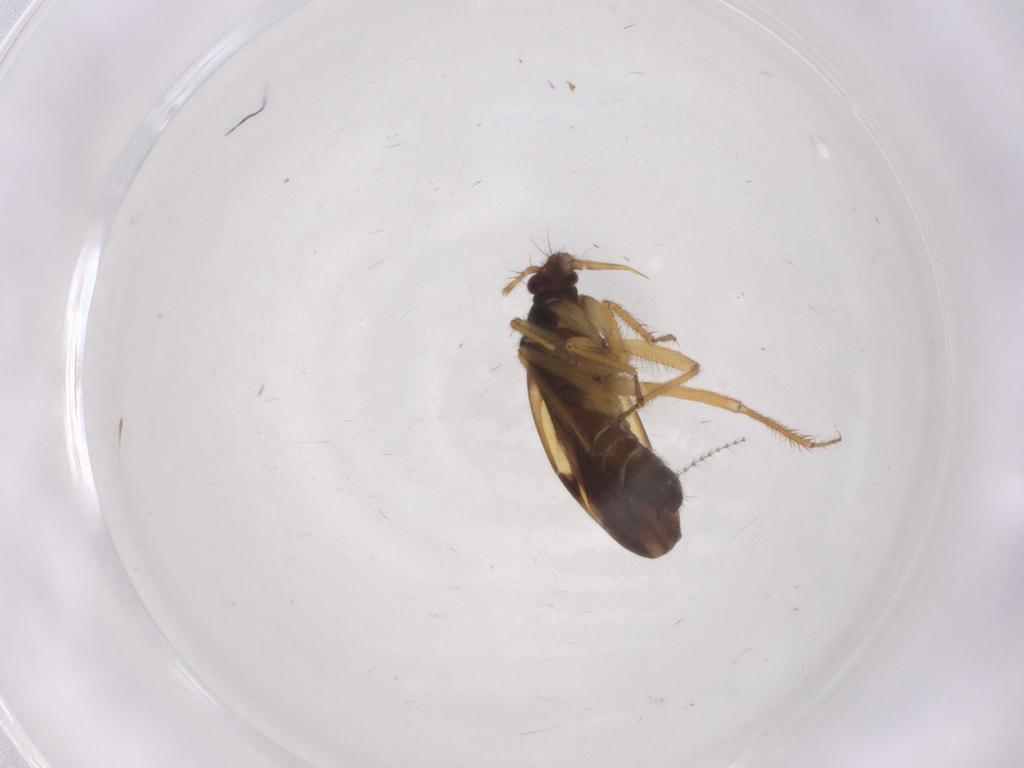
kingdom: Animalia
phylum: Arthropoda
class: Insecta
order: Hemiptera
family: Ceratocombidae
